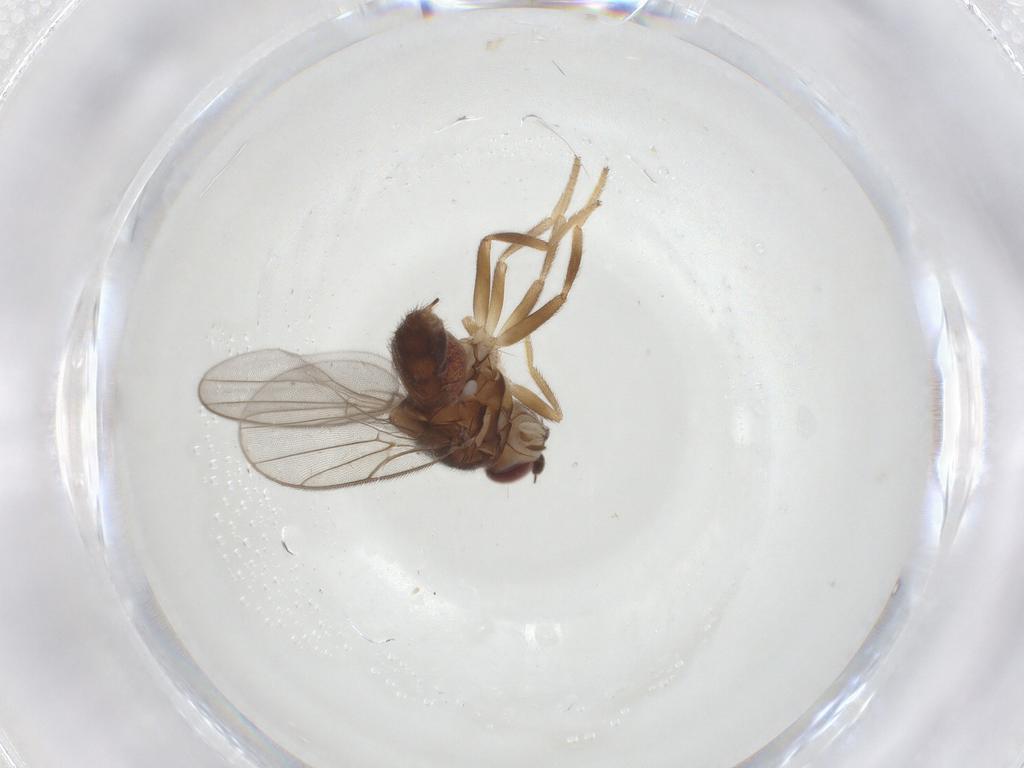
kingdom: Animalia
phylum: Arthropoda
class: Insecta
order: Diptera
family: Chloropidae
